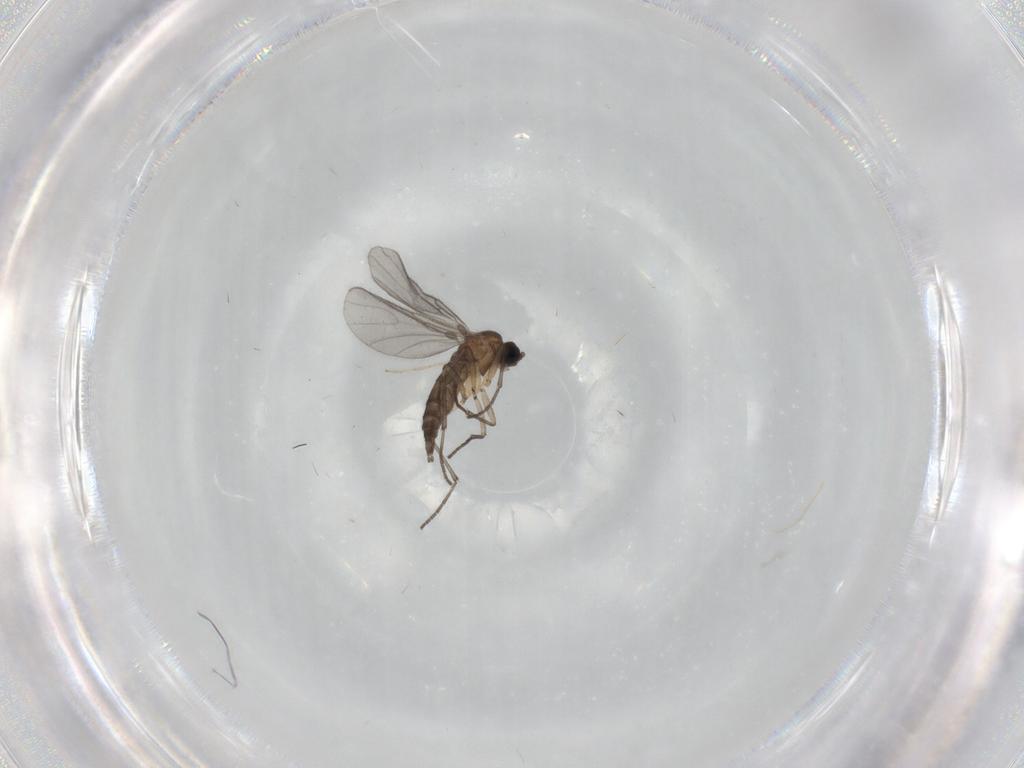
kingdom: Animalia
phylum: Arthropoda
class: Insecta
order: Diptera
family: Sciaridae
